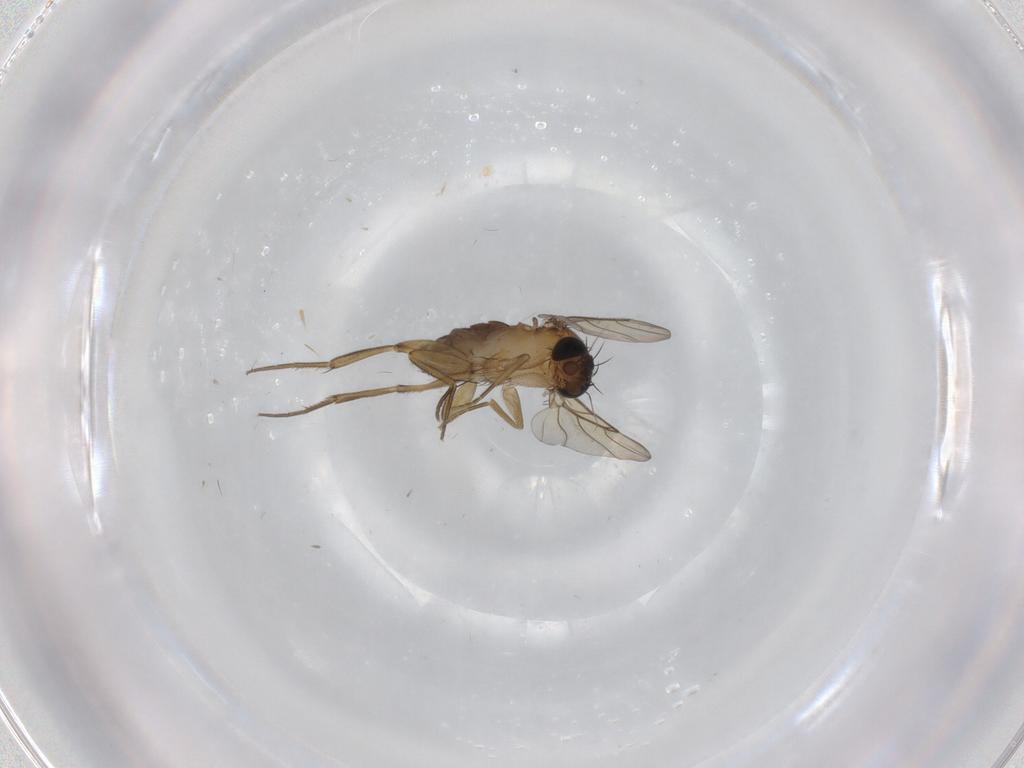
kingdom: Animalia
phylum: Arthropoda
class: Insecta
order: Diptera
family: Phoridae
